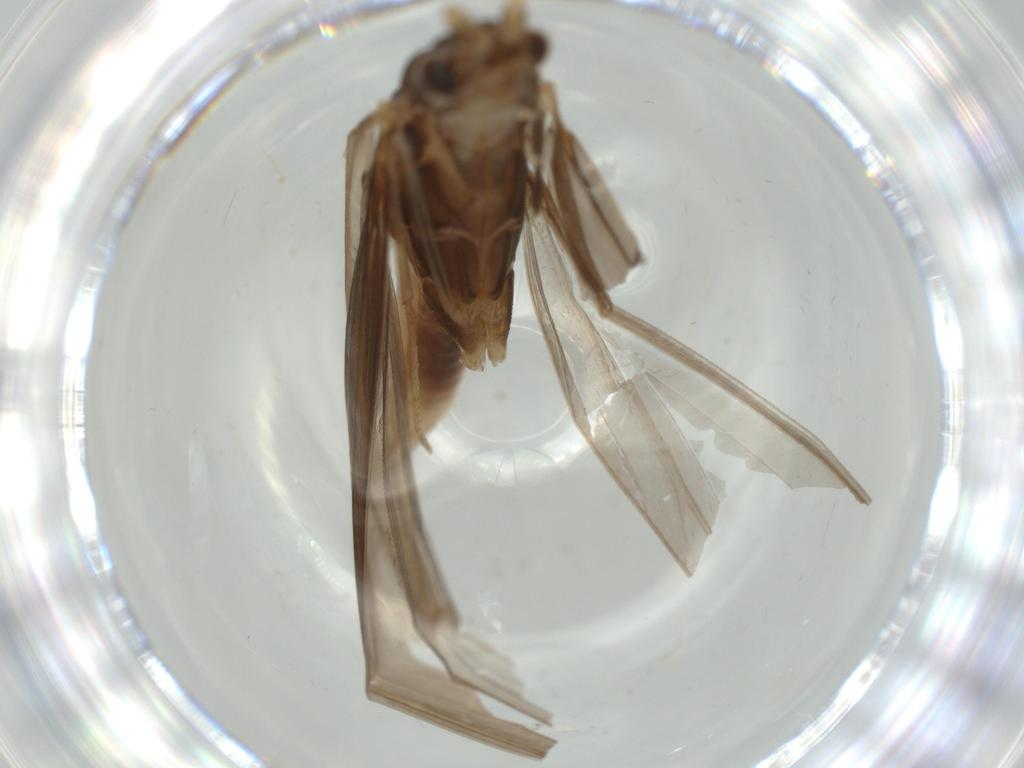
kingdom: Animalia
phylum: Arthropoda
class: Insecta
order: Trichoptera
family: Leptoceridae
